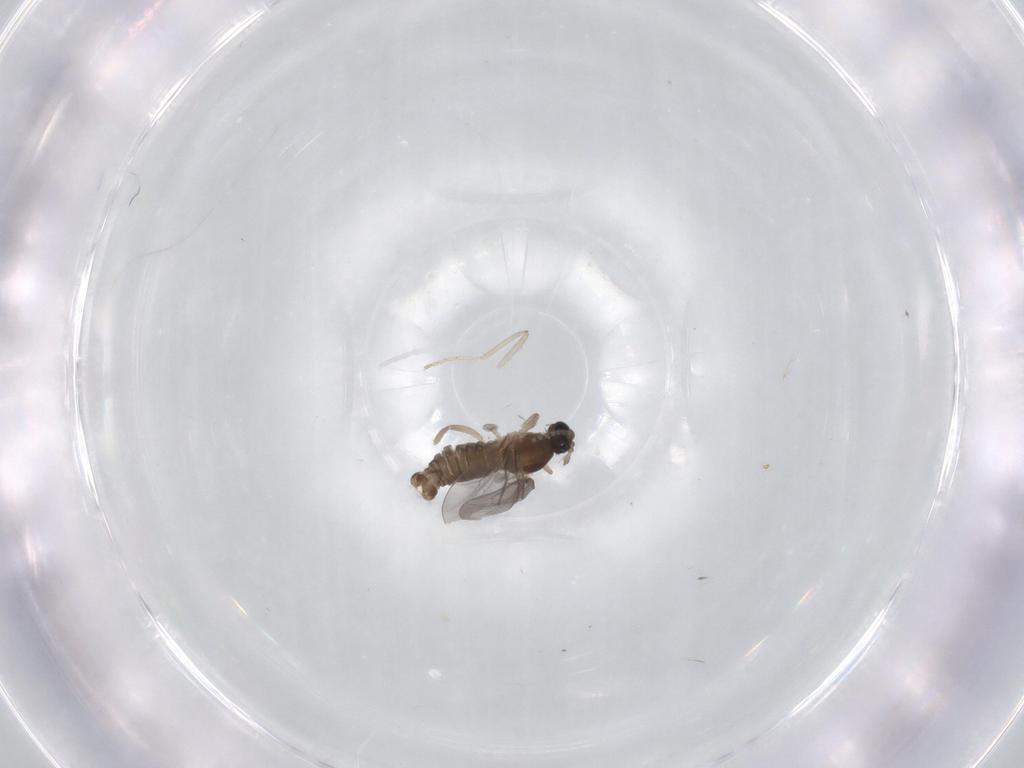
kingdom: Animalia
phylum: Arthropoda
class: Insecta
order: Diptera
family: Cecidomyiidae
